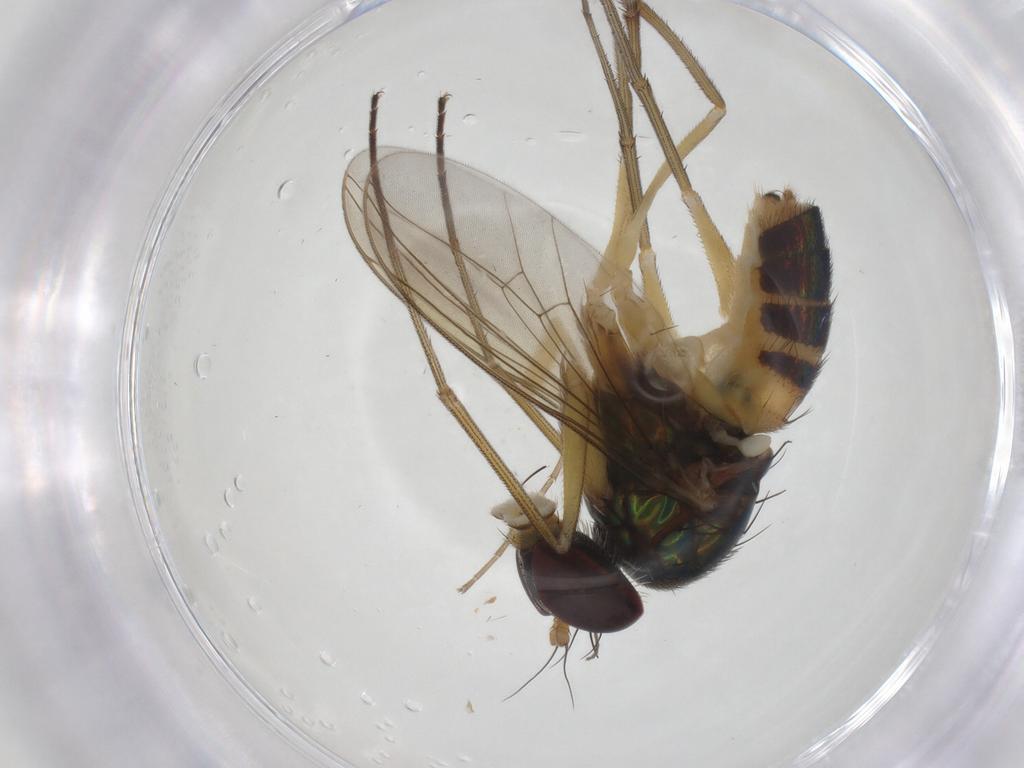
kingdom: Animalia
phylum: Arthropoda
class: Insecta
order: Diptera
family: Mycetophilidae
